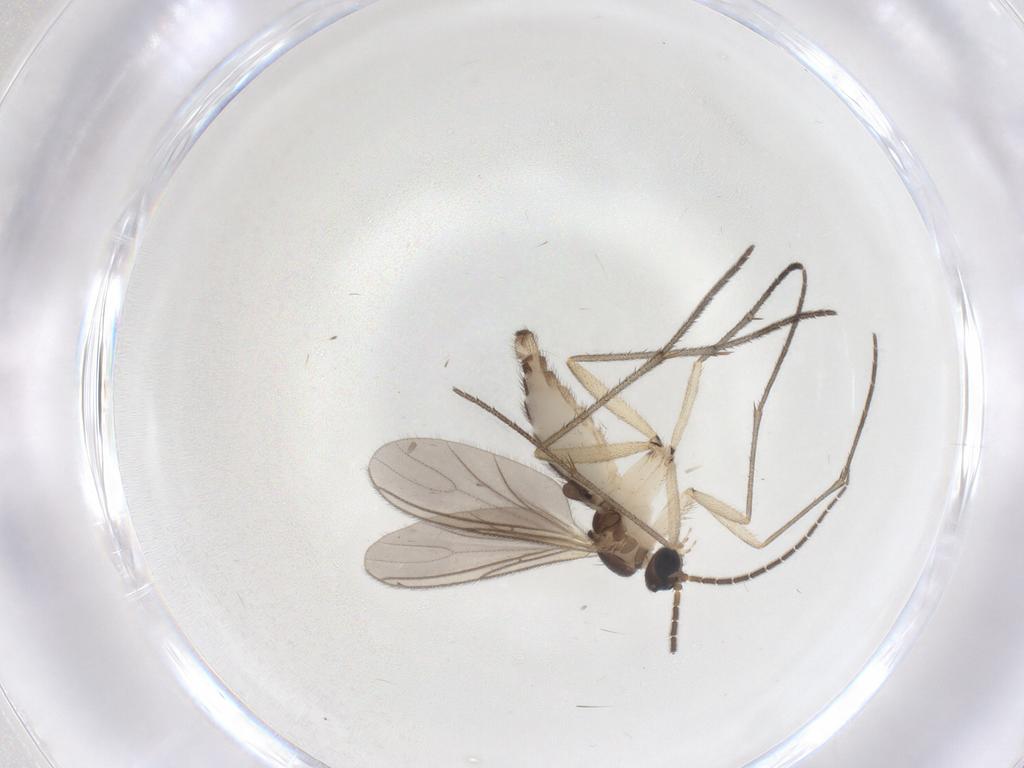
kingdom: Animalia
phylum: Arthropoda
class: Insecta
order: Diptera
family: Sciaridae
